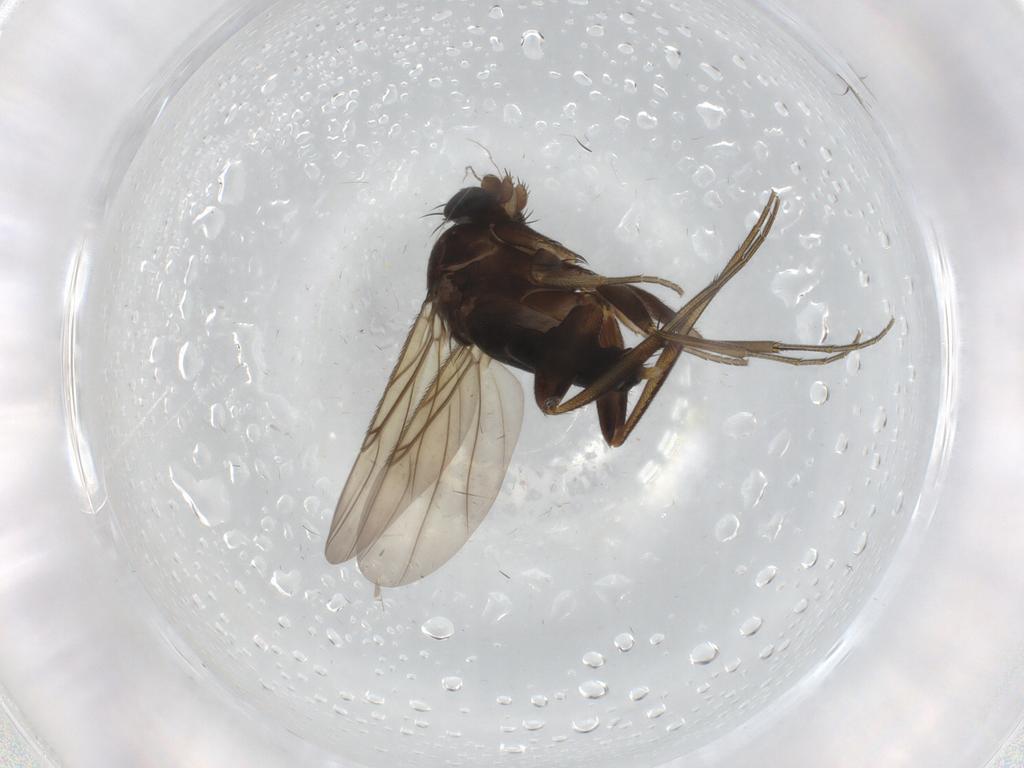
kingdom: Animalia
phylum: Arthropoda
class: Insecta
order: Diptera
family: Phoridae
